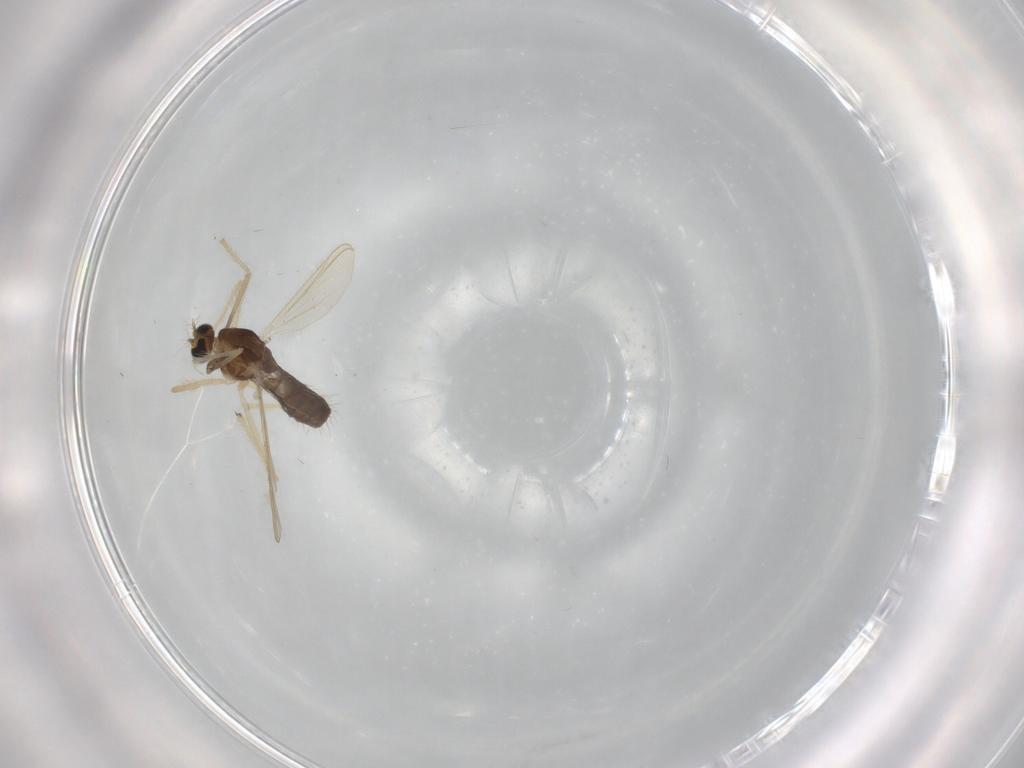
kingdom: Animalia
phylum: Arthropoda
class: Insecta
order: Diptera
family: Chironomidae
